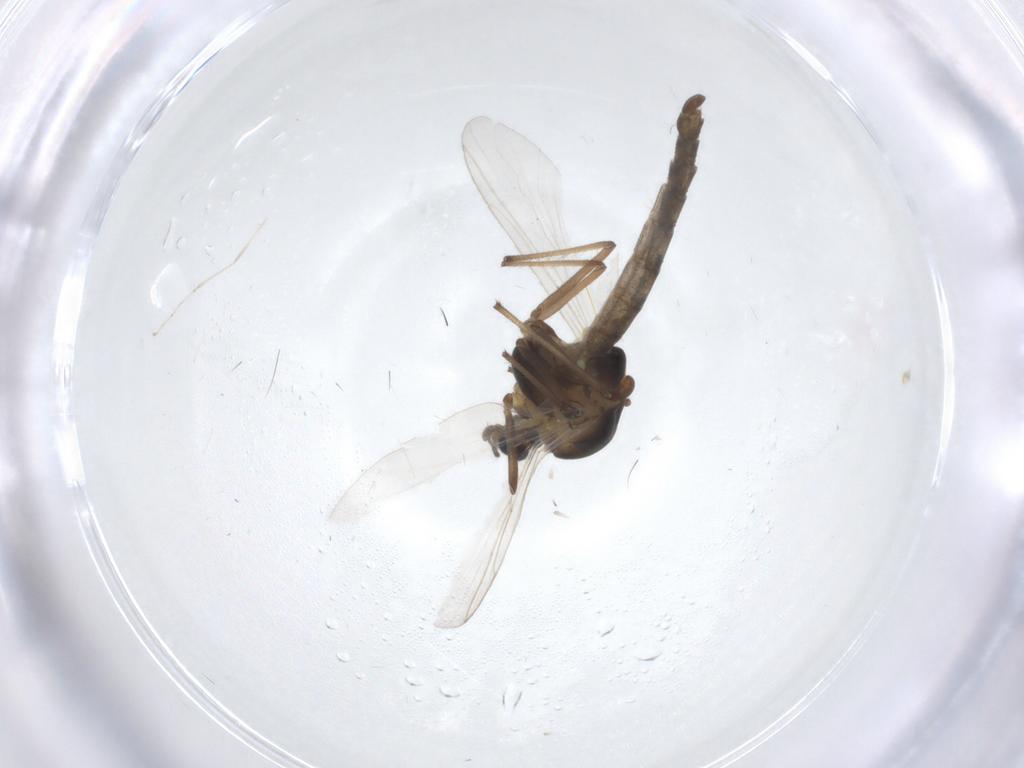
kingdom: Animalia
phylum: Arthropoda
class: Insecta
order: Diptera
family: Chironomidae
